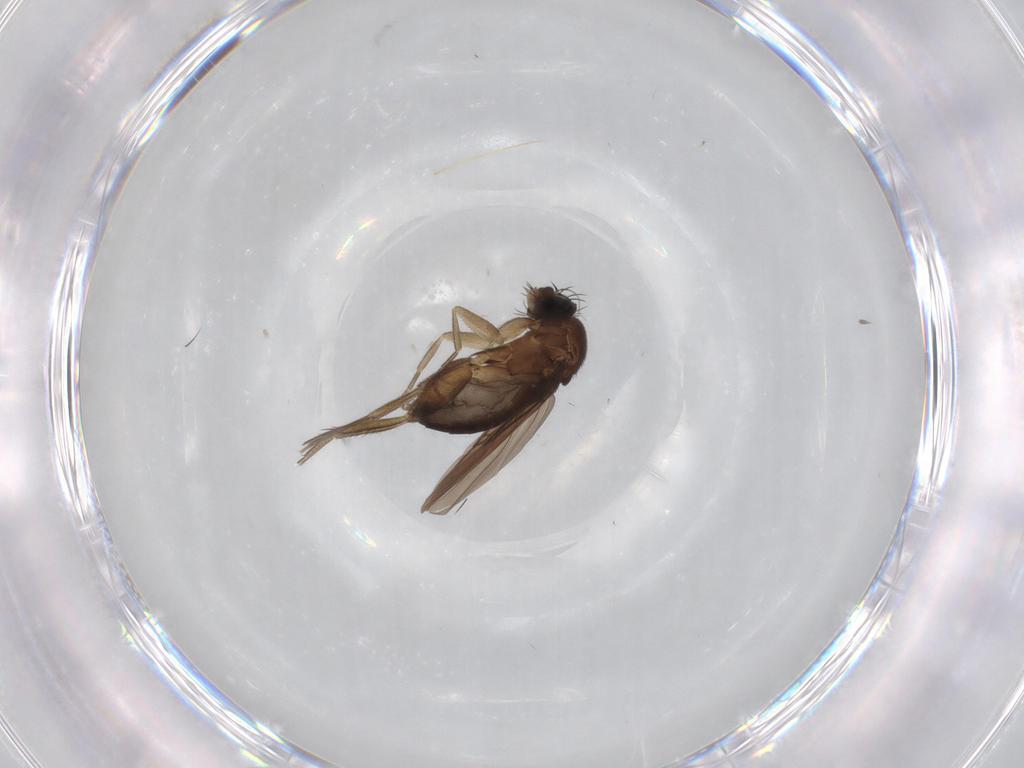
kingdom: Animalia
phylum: Arthropoda
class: Insecta
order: Diptera
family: Phoridae
